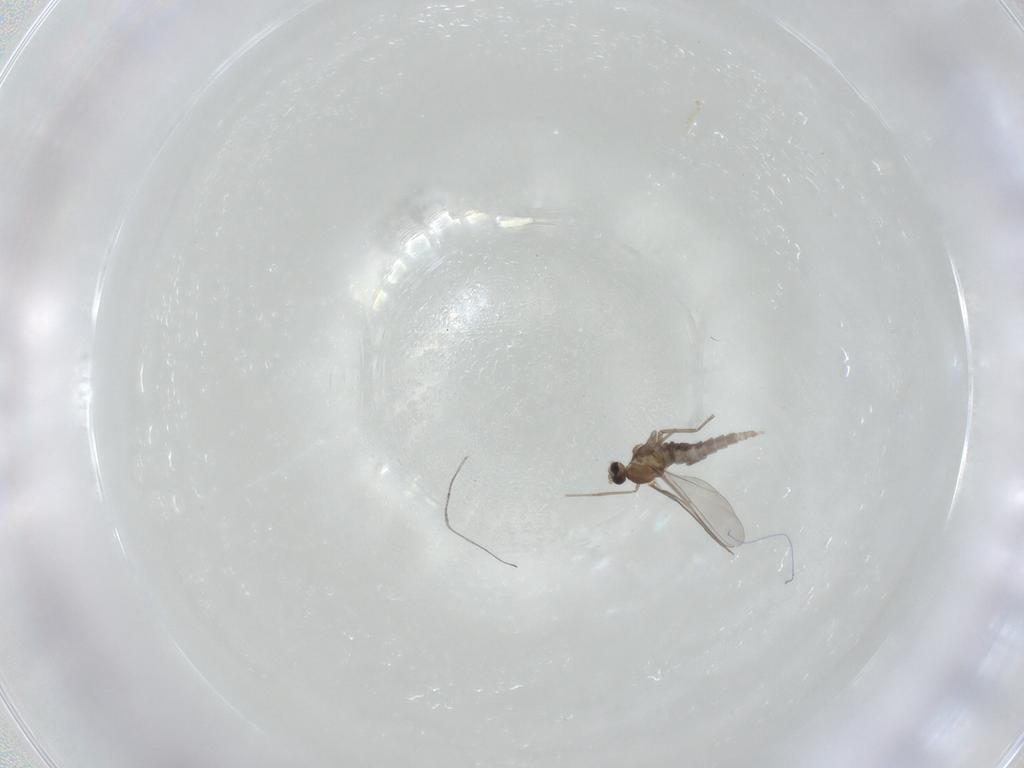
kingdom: Animalia
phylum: Arthropoda
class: Insecta
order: Diptera
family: Cecidomyiidae
